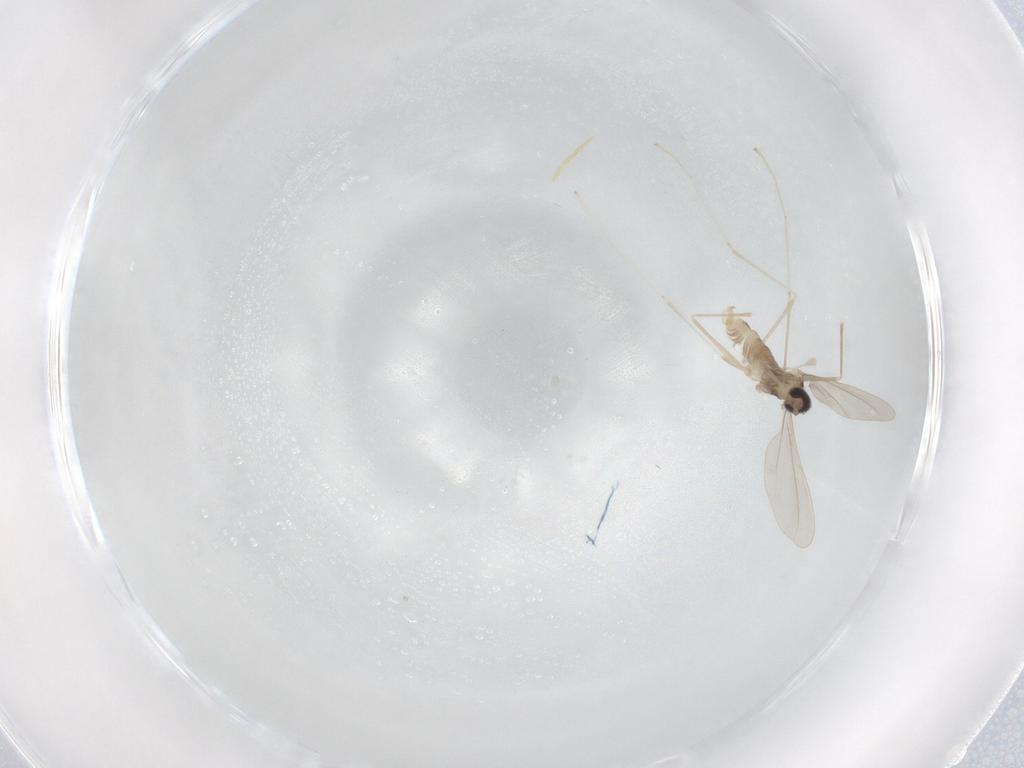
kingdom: Animalia
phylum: Arthropoda
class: Insecta
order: Diptera
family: Cecidomyiidae
